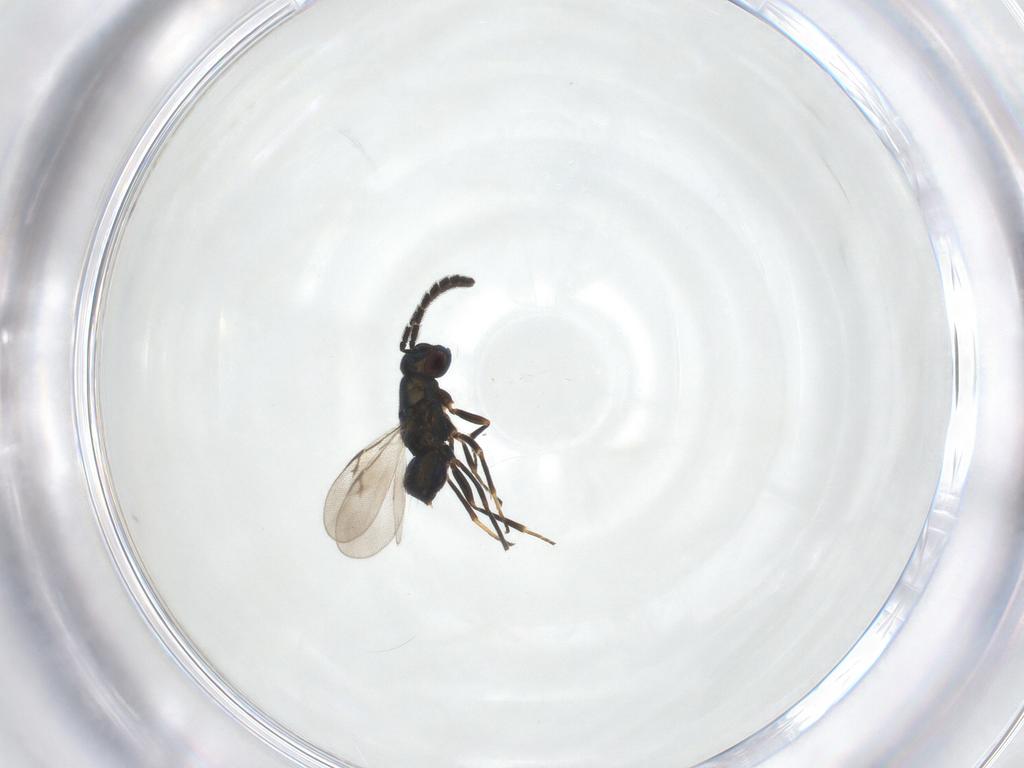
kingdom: Animalia
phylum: Arthropoda
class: Insecta
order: Hymenoptera
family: Encyrtidae
